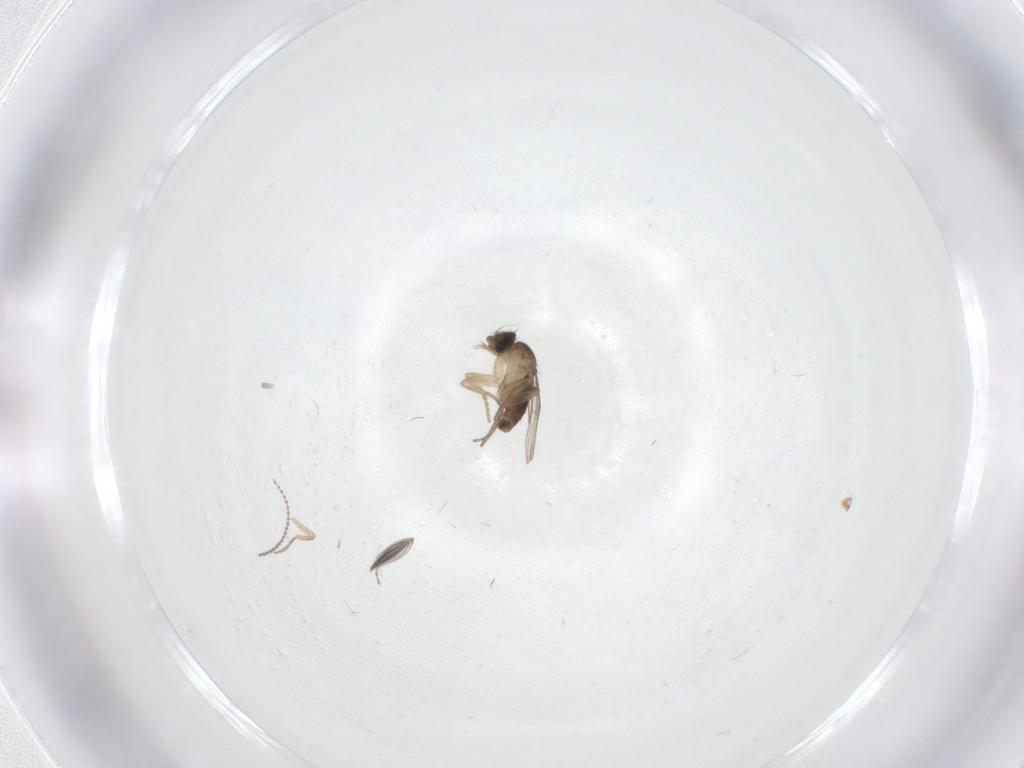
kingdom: Animalia
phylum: Arthropoda
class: Insecta
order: Diptera
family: Cecidomyiidae
